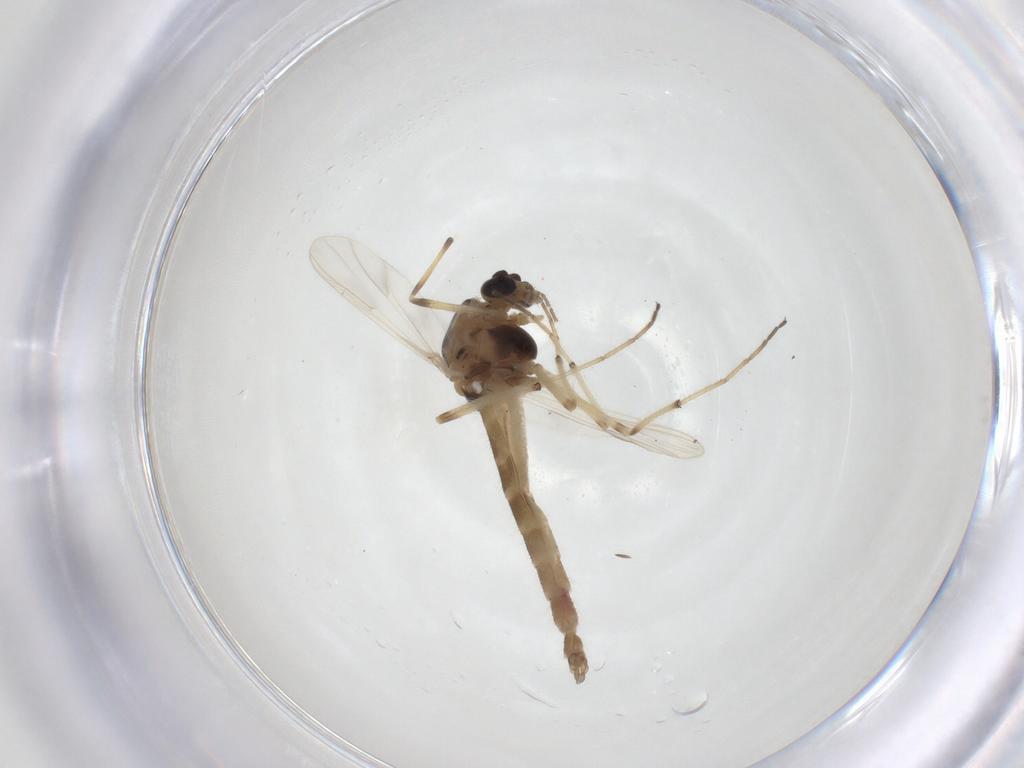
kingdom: Animalia
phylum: Arthropoda
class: Insecta
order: Diptera
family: Chironomidae
